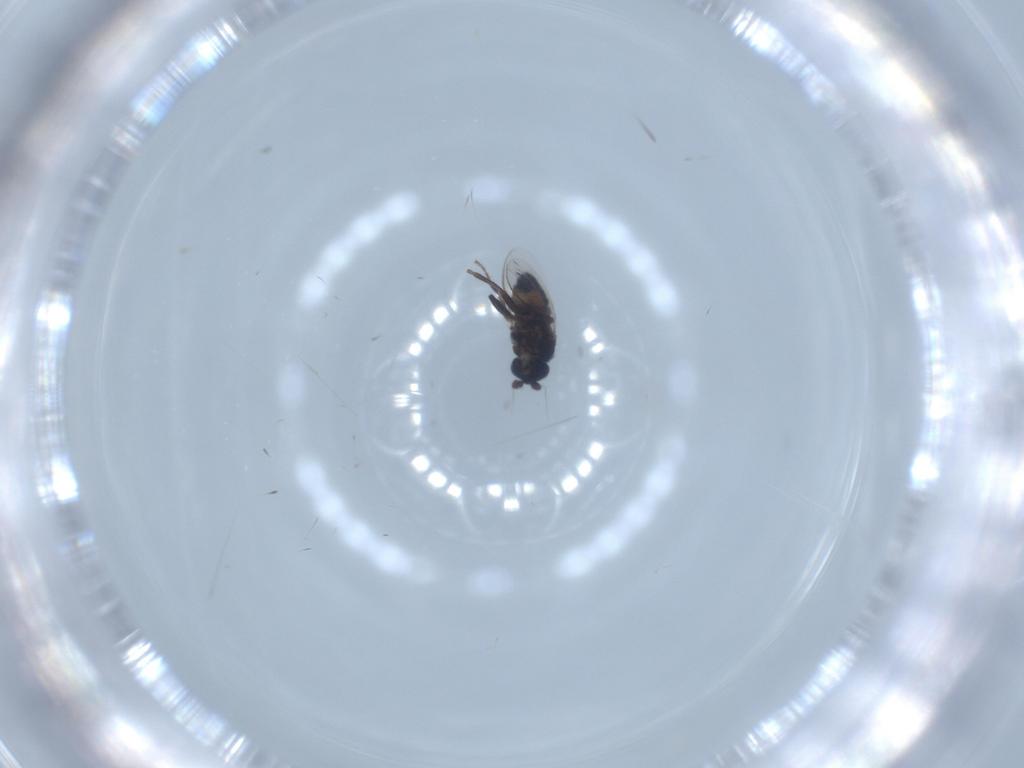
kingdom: Animalia
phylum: Arthropoda
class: Insecta
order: Diptera
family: Sphaeroceridae
